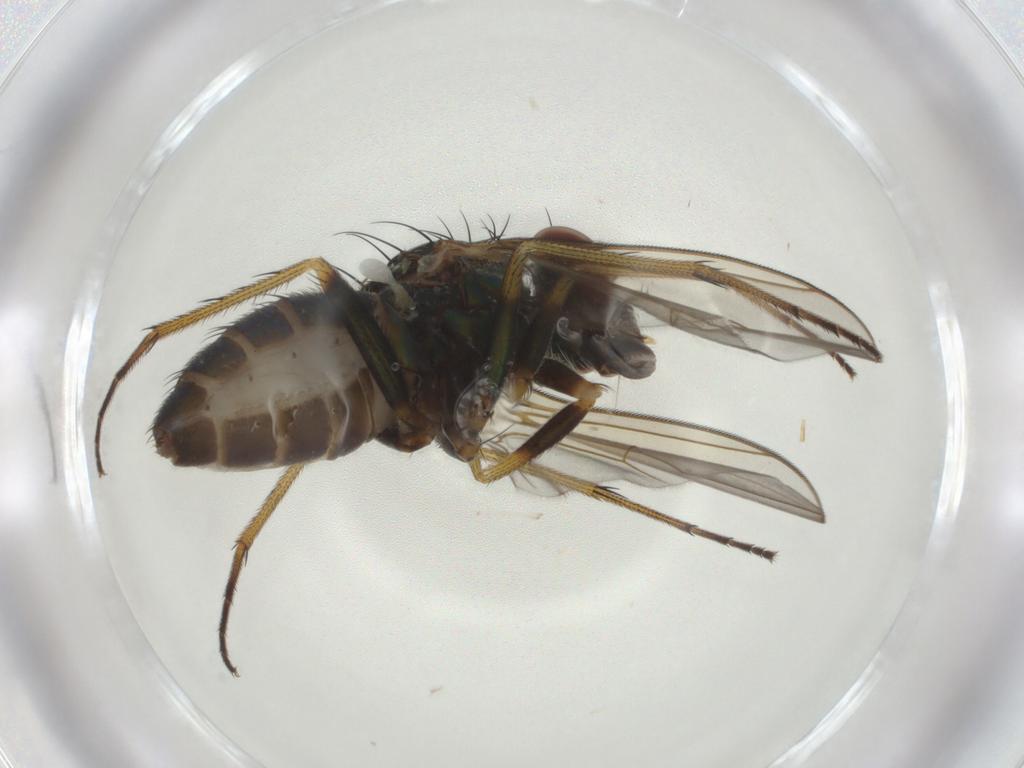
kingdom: Animalia
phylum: Arthropoda
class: Insecta
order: Diptera
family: Dolichopodidae
